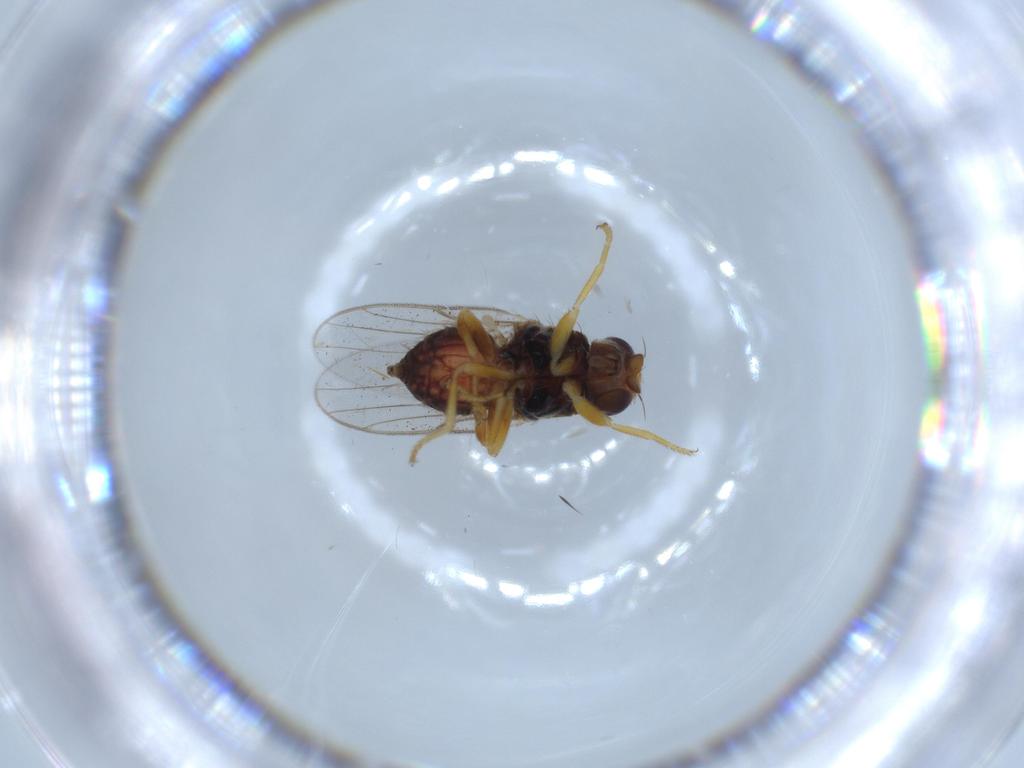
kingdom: Animalia
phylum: Arthropoda
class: Insecta
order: Diptera
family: Chloropidae
